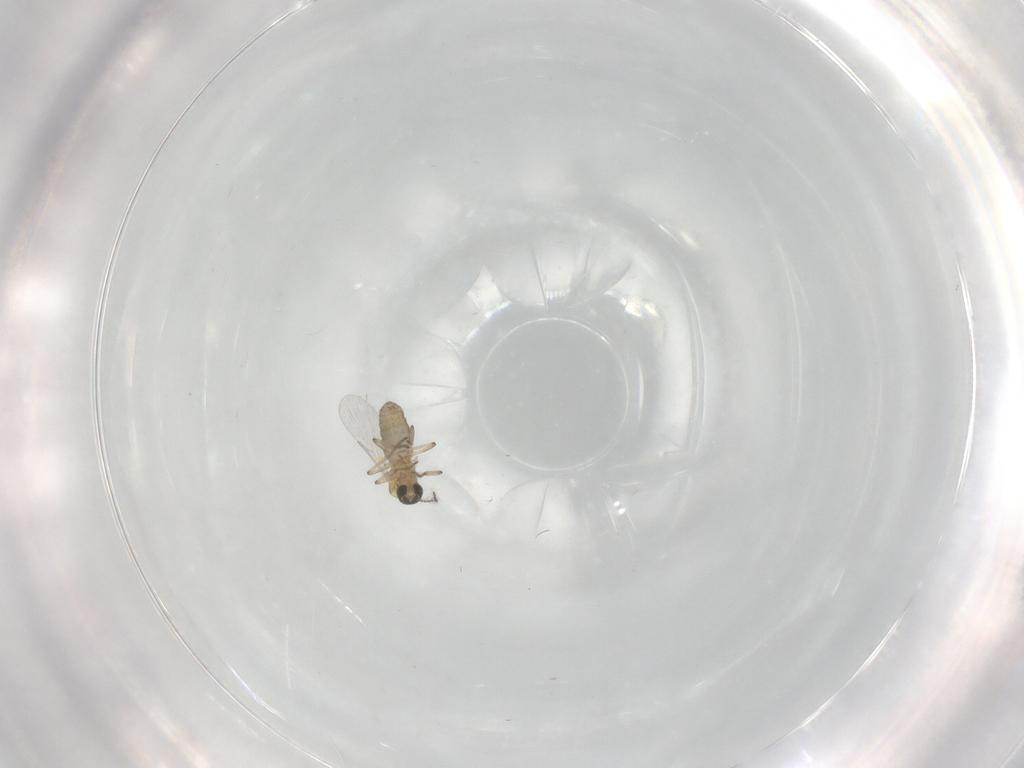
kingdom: Animalia
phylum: Arthropoda
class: Insecta
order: Diptera
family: Ceratopogonidae
